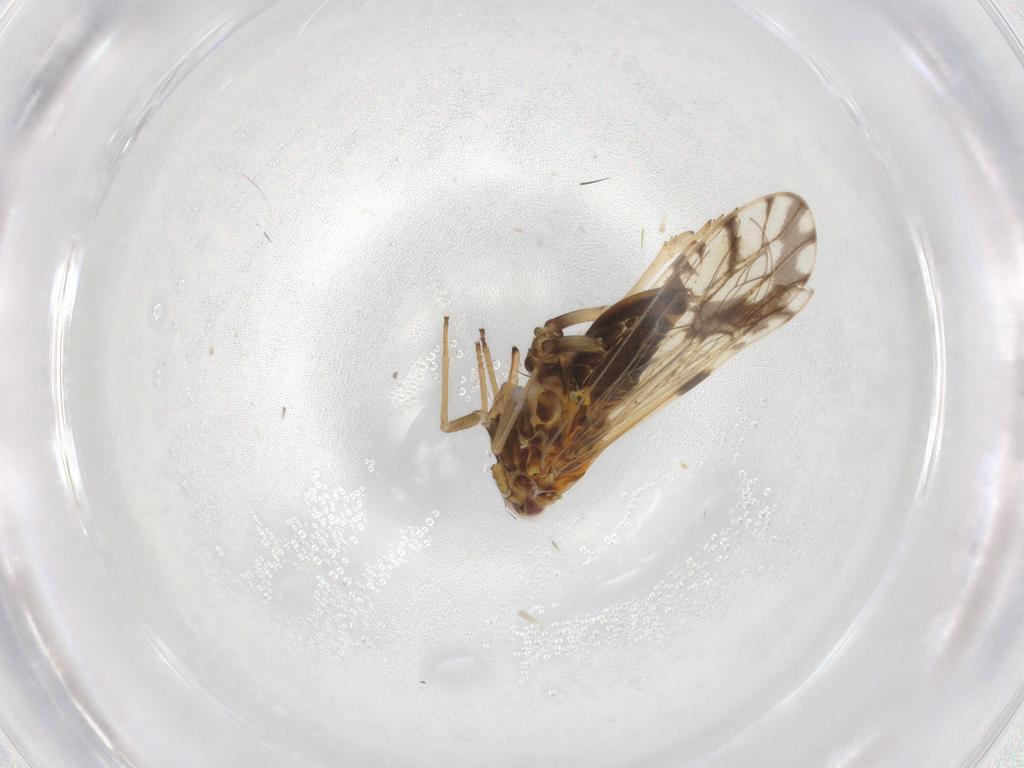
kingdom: Animalia
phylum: Arthropoda
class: Insecta
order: Hemiptera
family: Delphacidae
